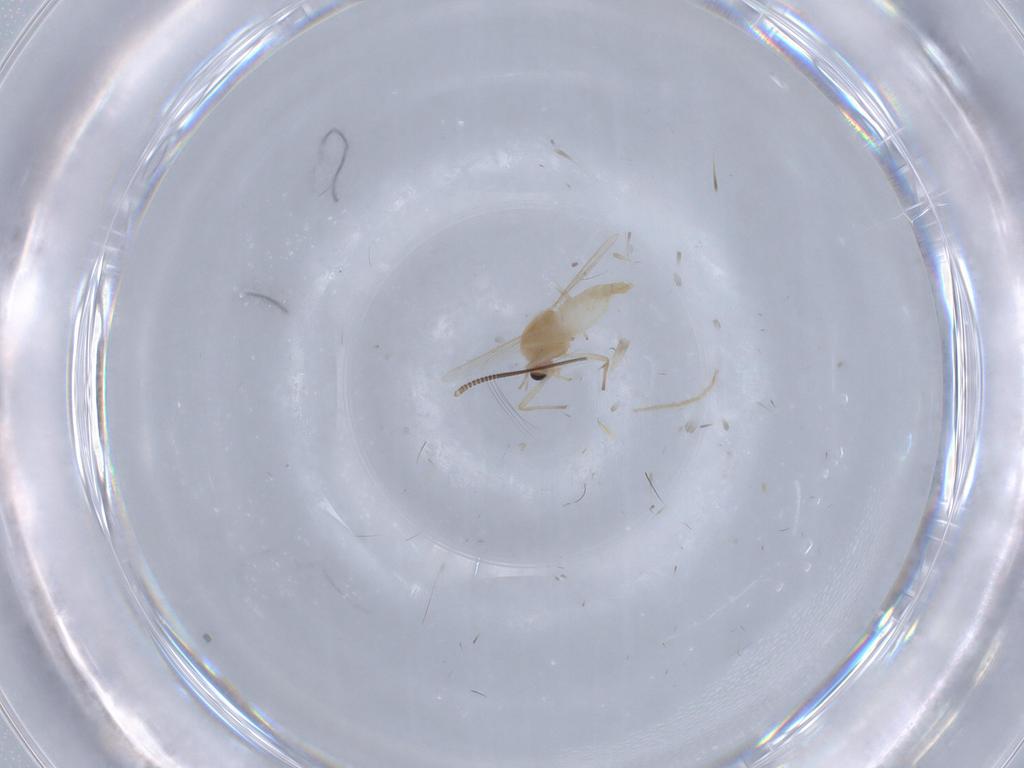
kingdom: Animalia
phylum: Arthropoda
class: Insecta
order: Diptera
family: Chironomidae
